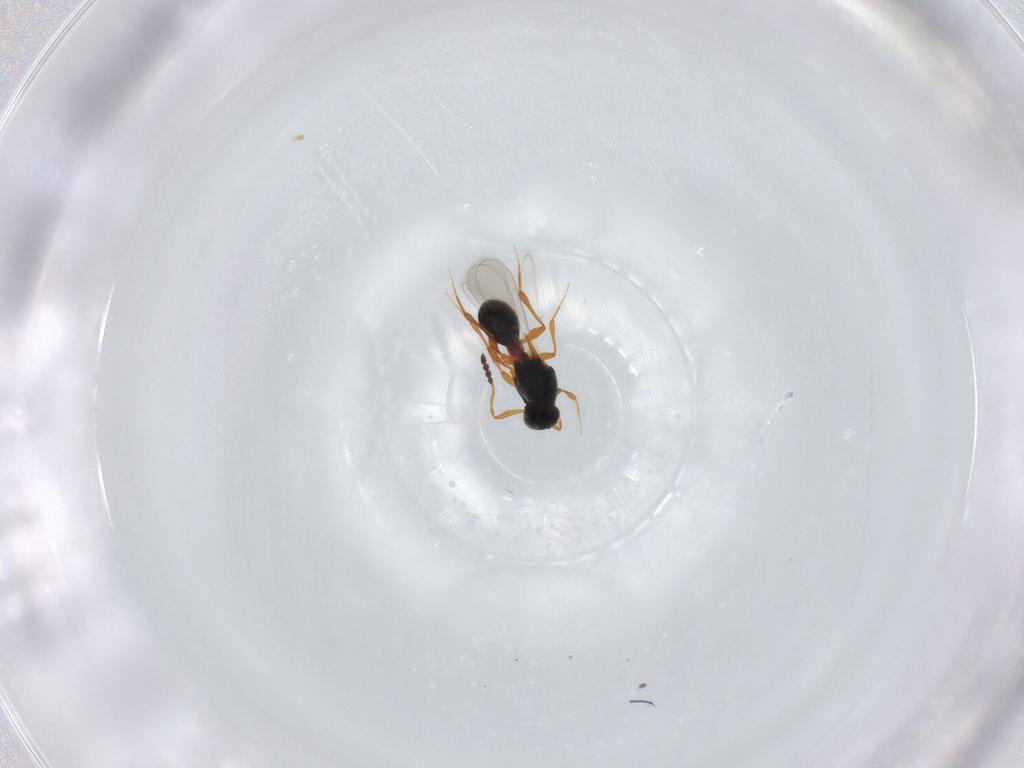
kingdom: Animalia
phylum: Arthropoda
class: Insecta
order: Hymenoptera
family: Platygastridae
